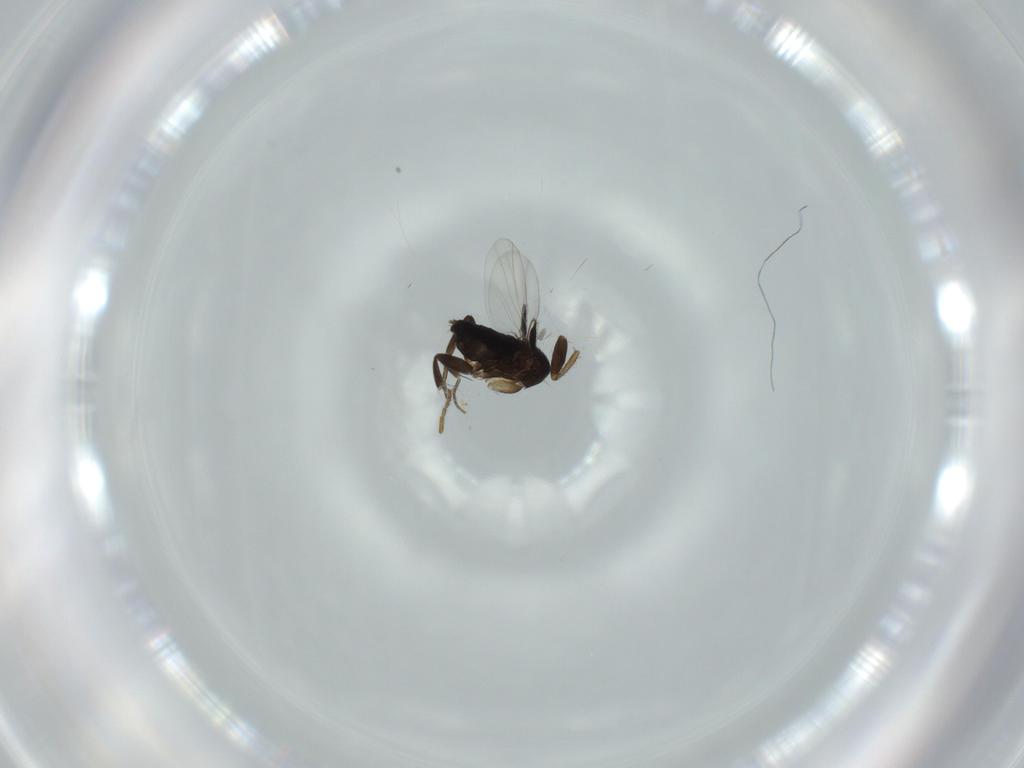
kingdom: Animalia
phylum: Arthropoda
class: Insecta
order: Diptera
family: Phoridae
